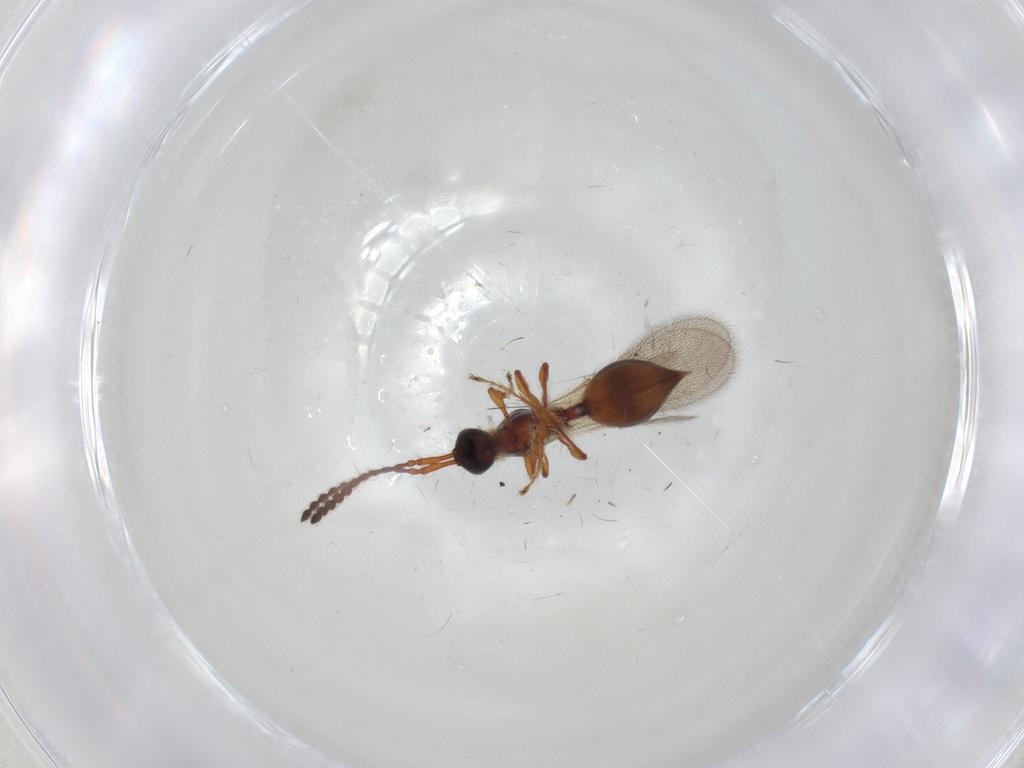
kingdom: Animalia
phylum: Arthropoda
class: Insecta
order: Hymenoptera
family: Diapriidae
